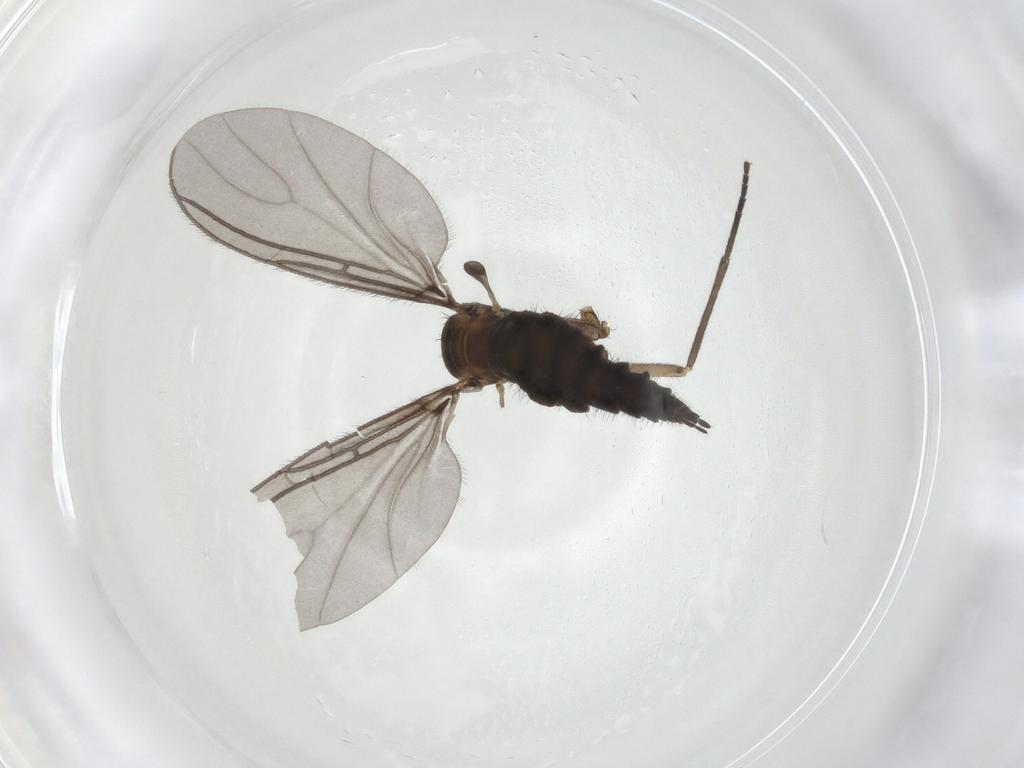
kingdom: Animalia
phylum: Arthropoda
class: Insecta
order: Diptera
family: Sciaridae
